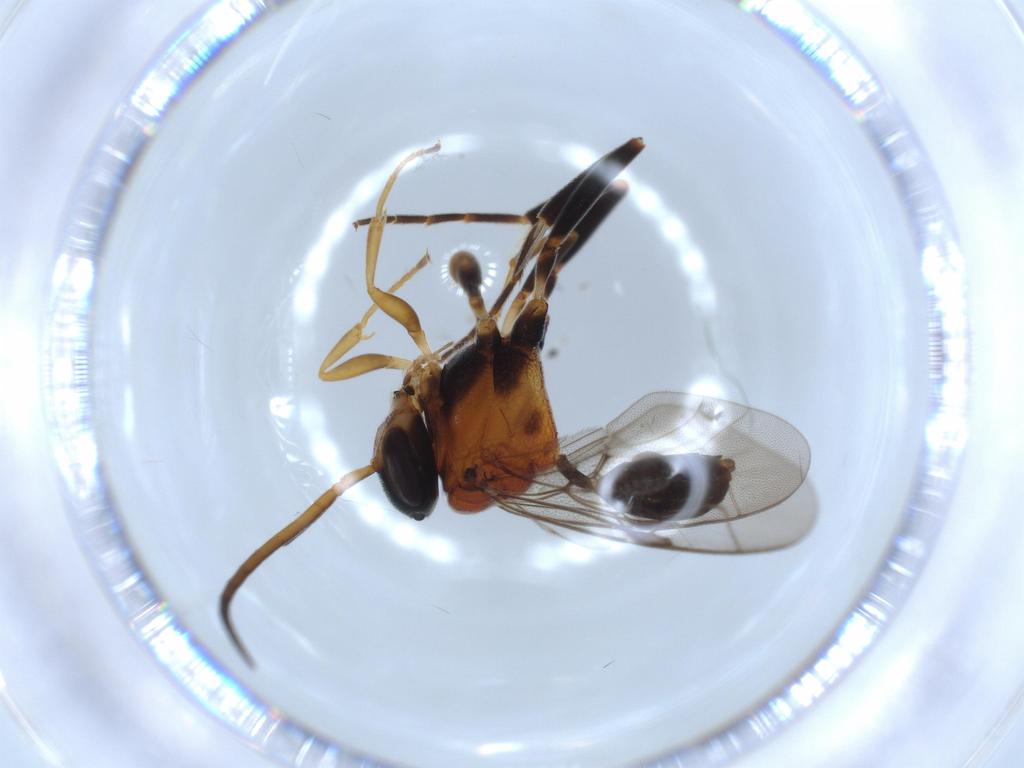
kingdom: Animalia
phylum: Arthropoda
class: Insecta
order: Hymenoptera
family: Evaniidae
